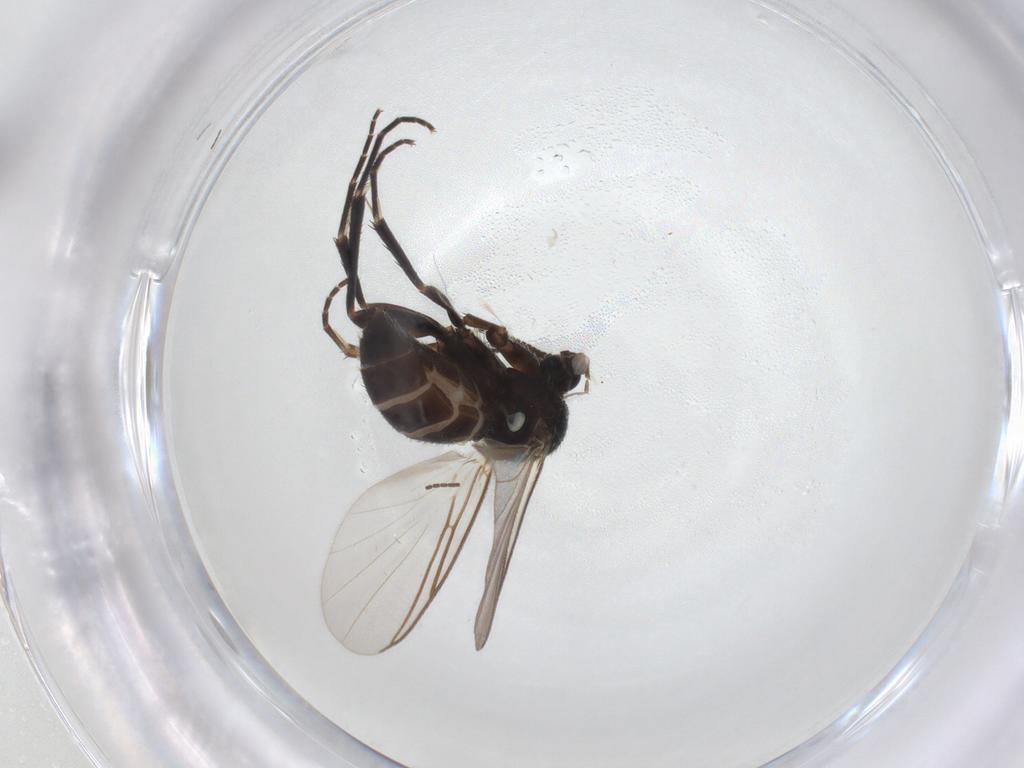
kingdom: Animalia
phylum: Arthropoda
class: Insecta
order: Diptera
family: Mycetophilidae
